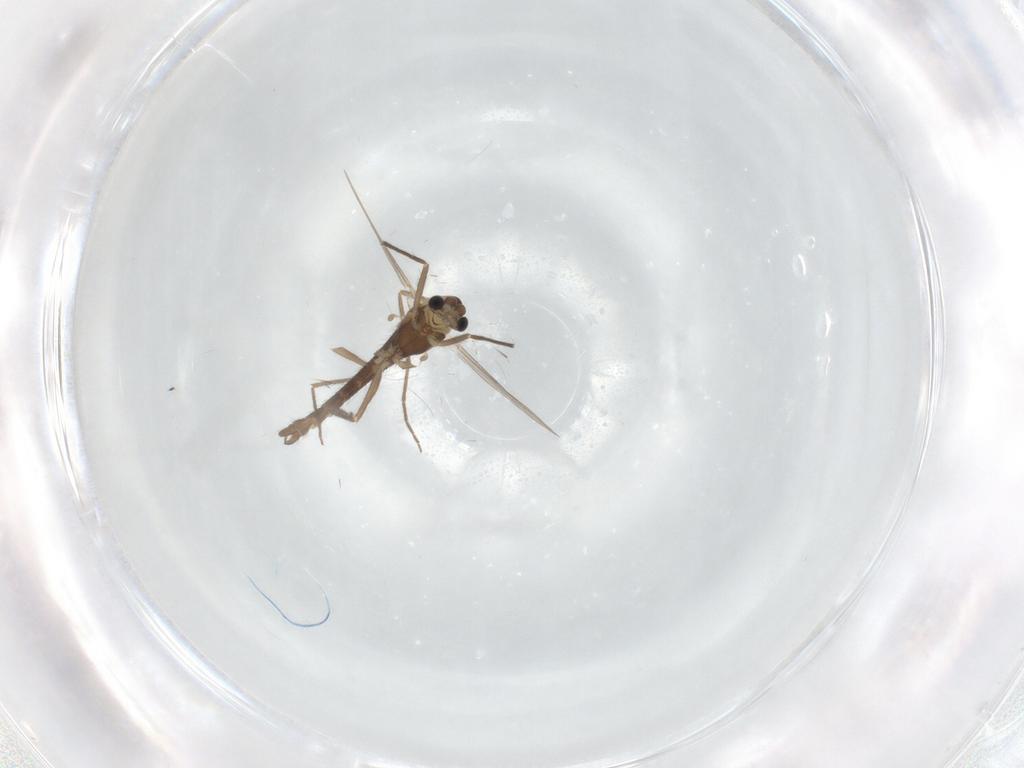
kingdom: Animalia
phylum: Arthropoda
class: Insecta
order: Diptera
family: Chironomidae
